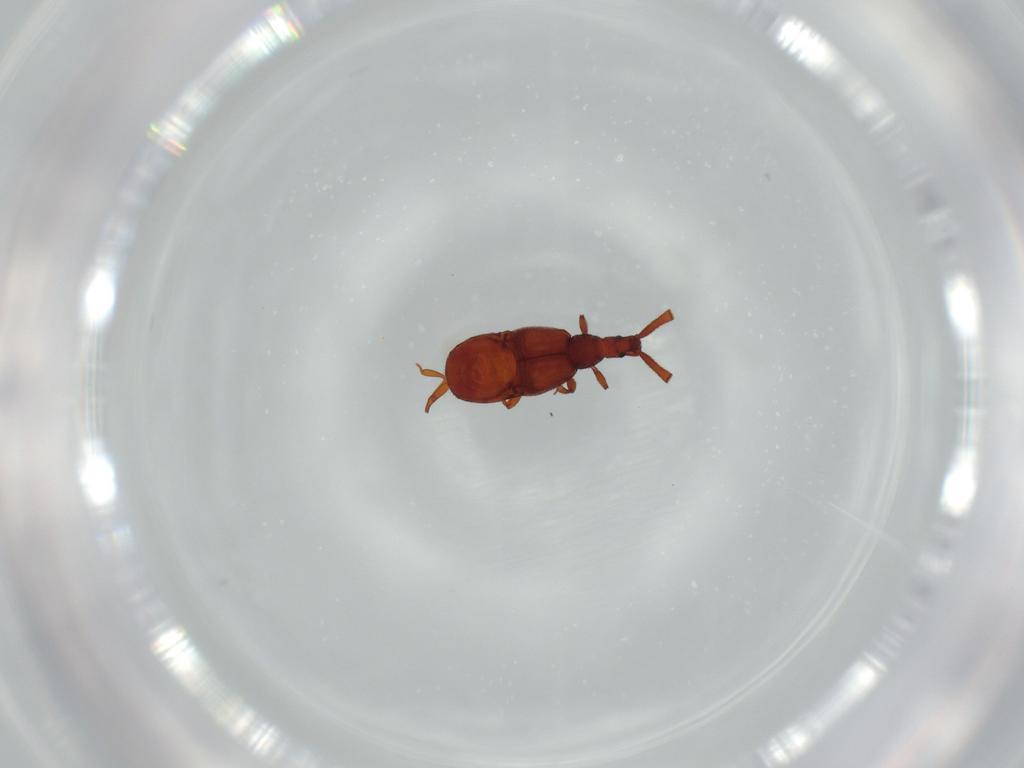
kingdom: Animalia
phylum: Arthropoda
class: Insecta
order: Coleoptera
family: Staphylinidae
